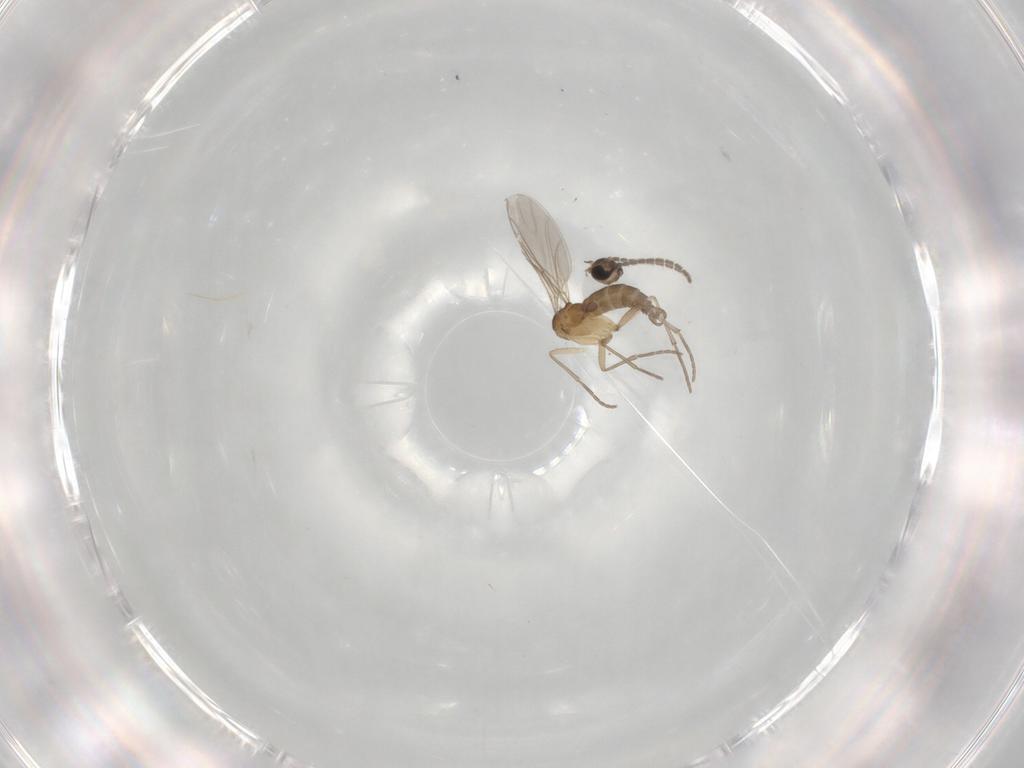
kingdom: Animalia
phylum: Arthropoda
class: Insecta
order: Diptera
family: Sciaridae
